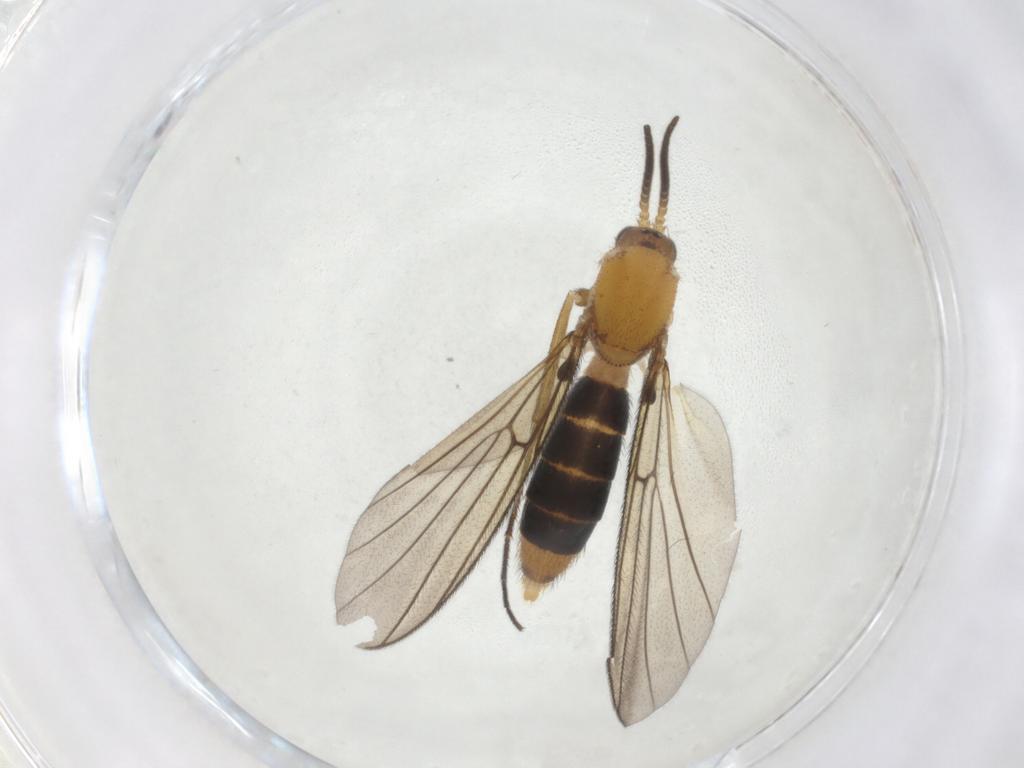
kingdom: Animalia
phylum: Arthropoda
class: Insecta
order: Diptera
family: Mycetophilidae
